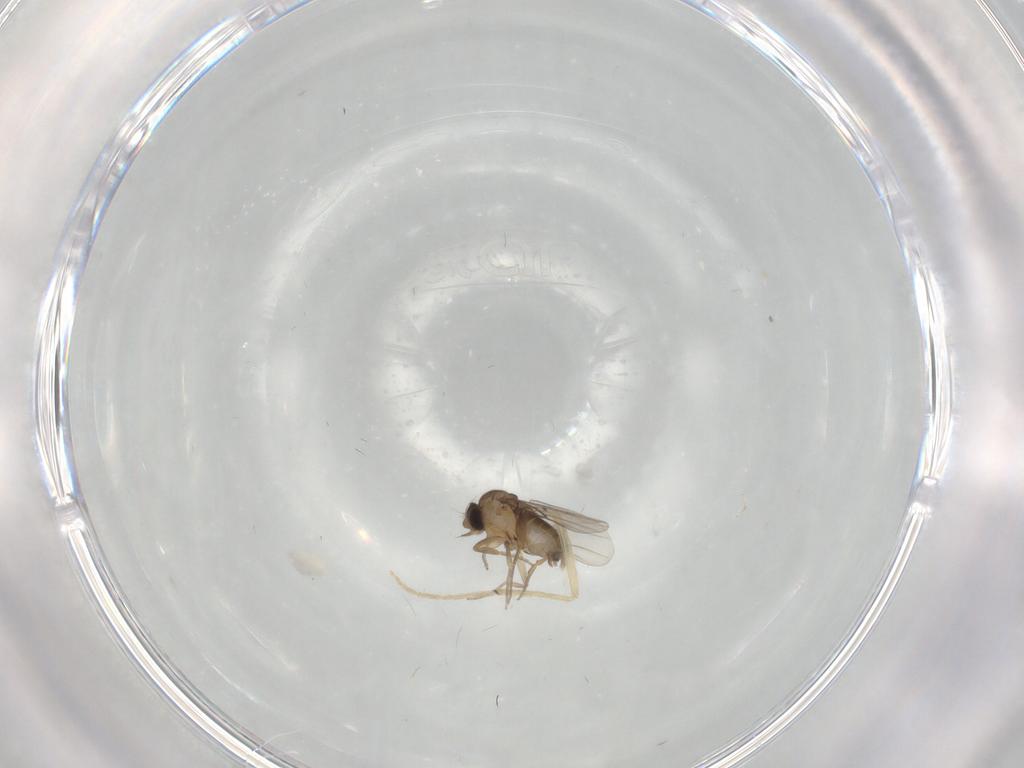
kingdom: Animalia
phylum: Arthropoda
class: Insecta
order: Diptera
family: Phoridae
